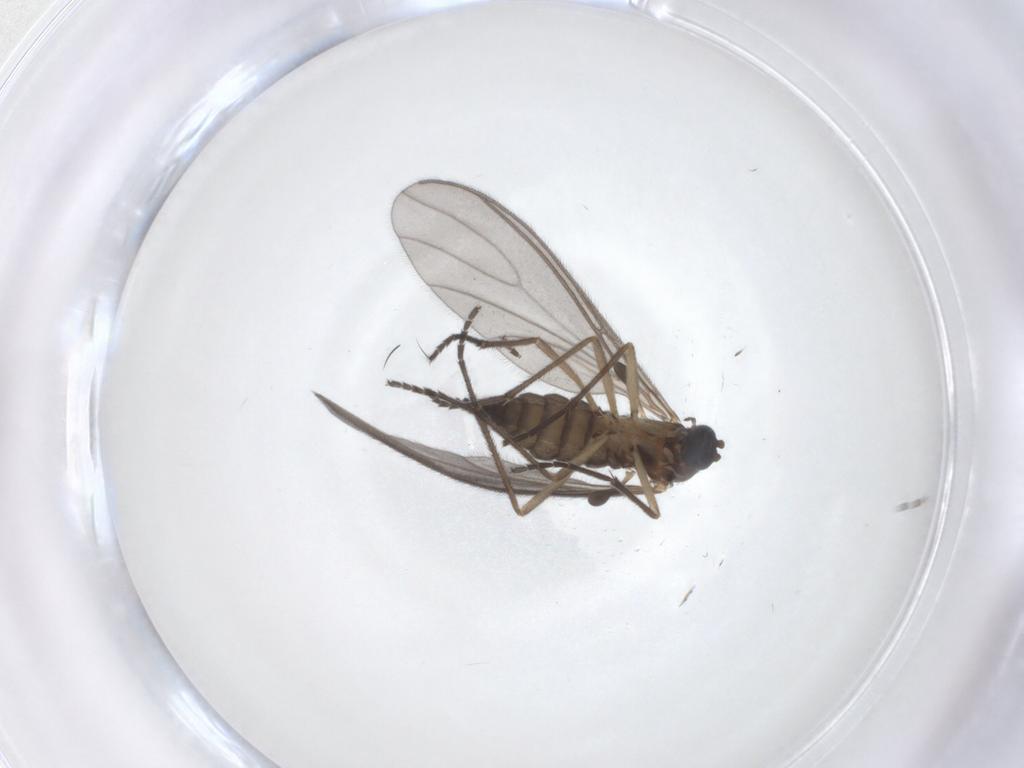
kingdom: Animalia
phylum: Arthropoda
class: Insecta
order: Diptera
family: Sciaridae
